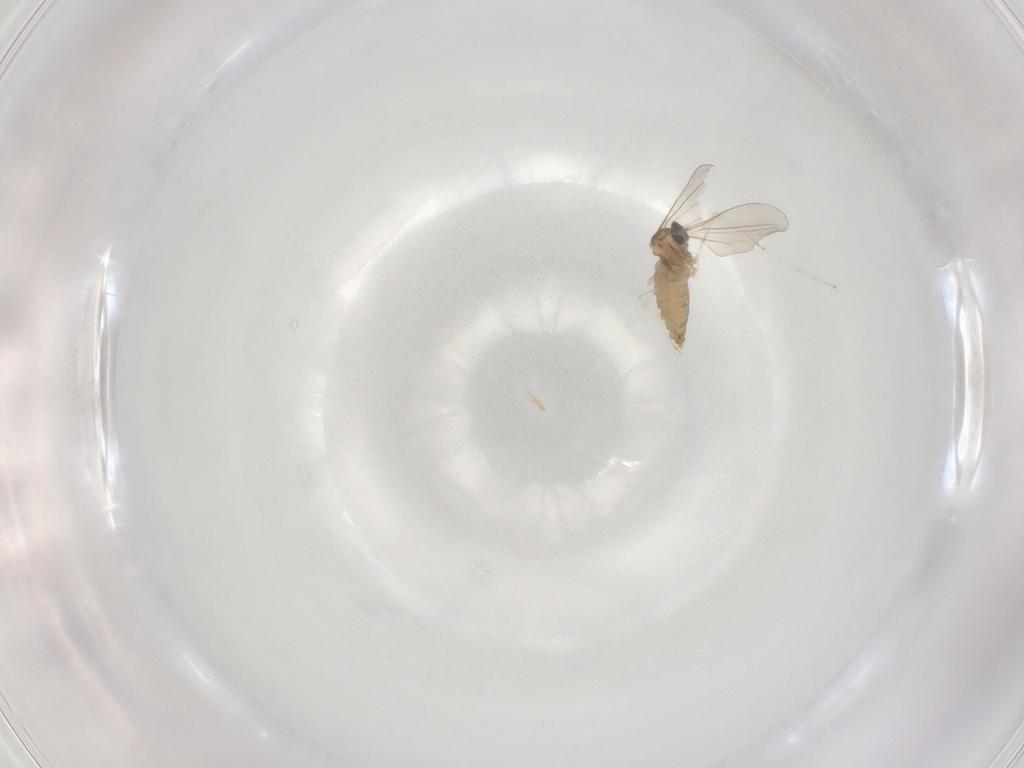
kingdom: Animalia
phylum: Arthropoda
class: Insecta
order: Diptera
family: Cecidomyiidae
